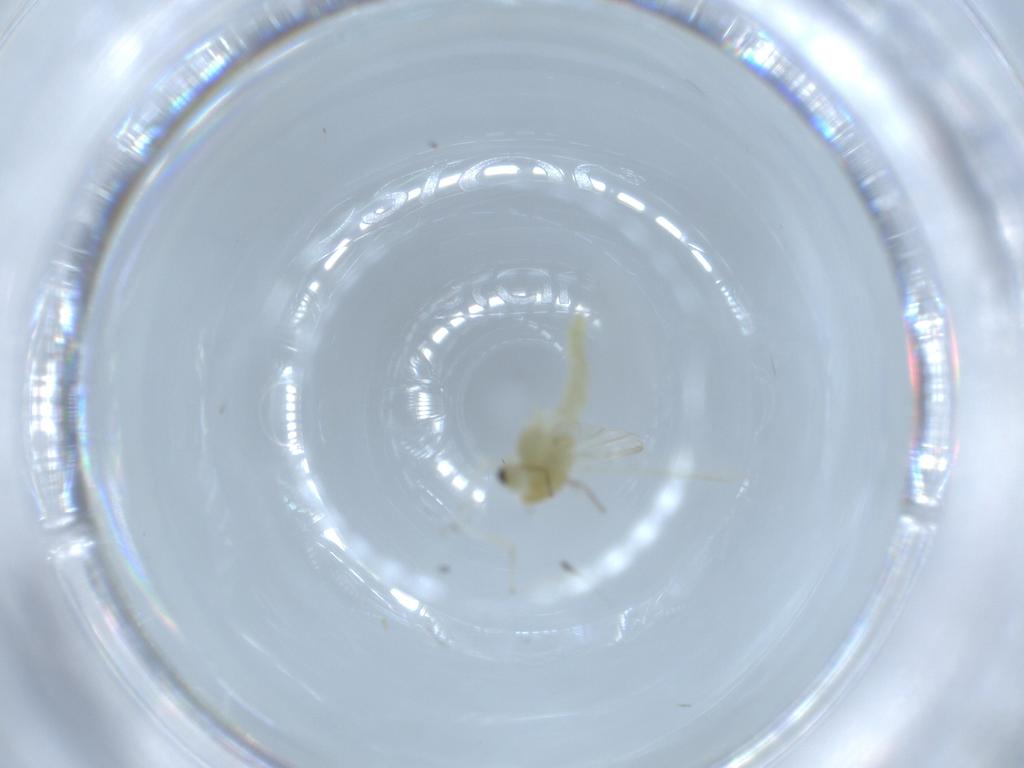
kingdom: Animalia
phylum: Arthropoda
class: Insecta
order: Diptera
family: Chironomidae
